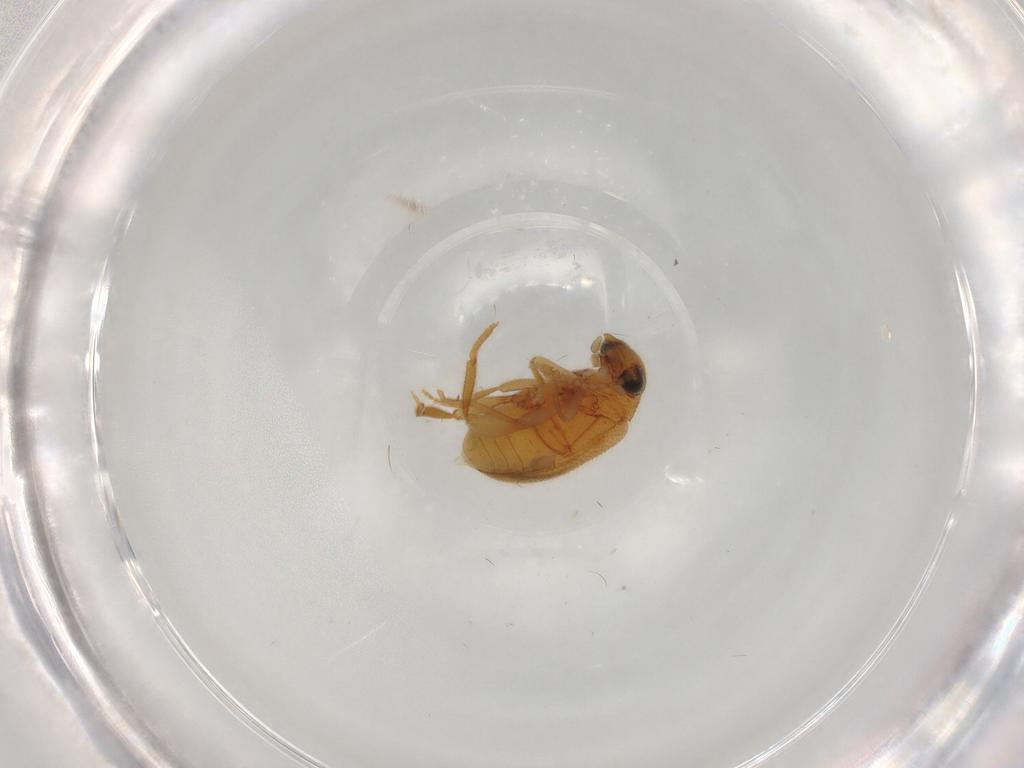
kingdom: Animalia
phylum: Arthropoda
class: Insecta
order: Coleoptera
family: Aderidae
